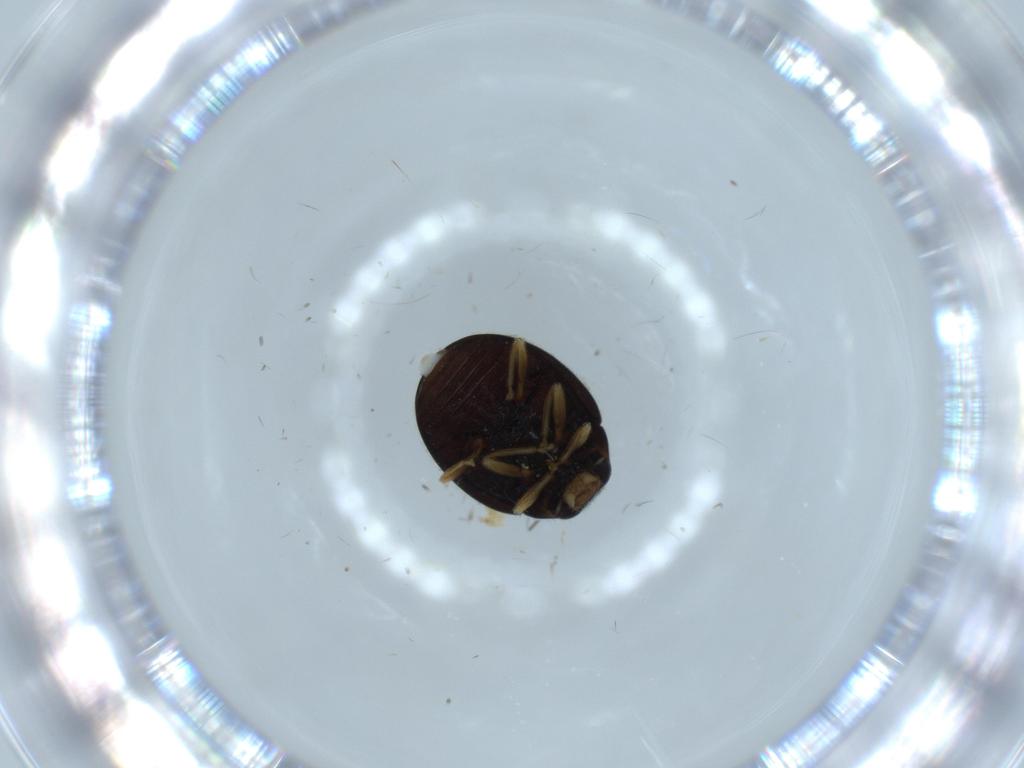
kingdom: Animalia
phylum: Arthropoda
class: Insecta
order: Coleoptera
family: Coccinellidae
